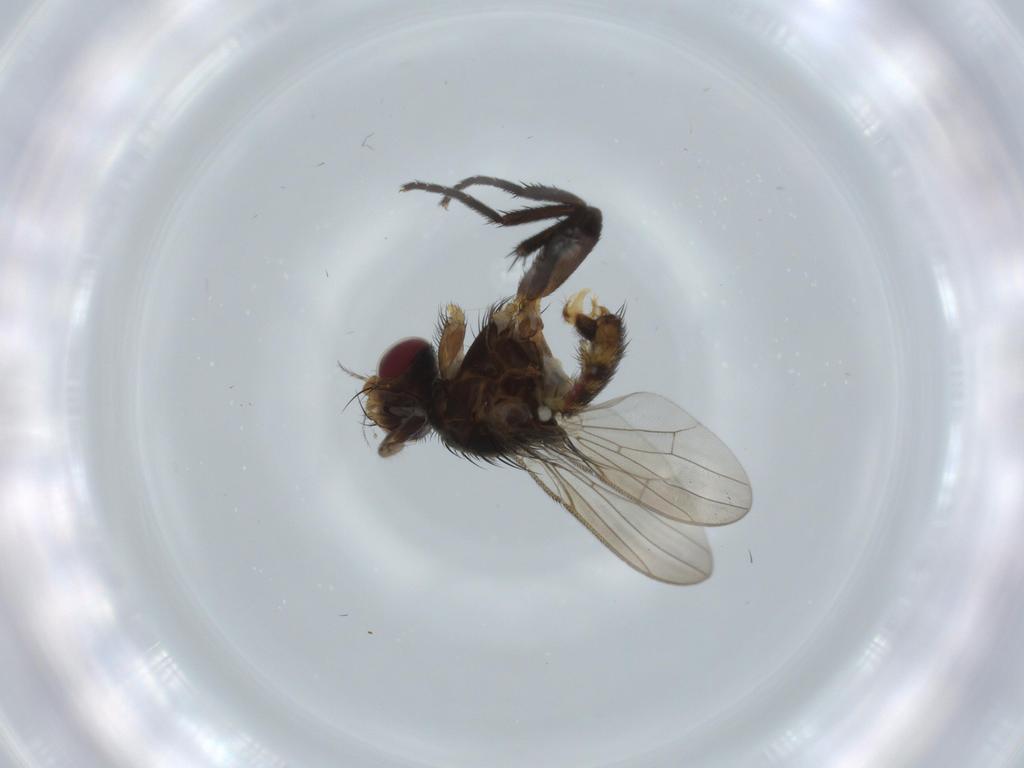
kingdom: Animalia
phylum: Arthropoda
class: Insecta
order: Diptera
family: Anthomyiidae
